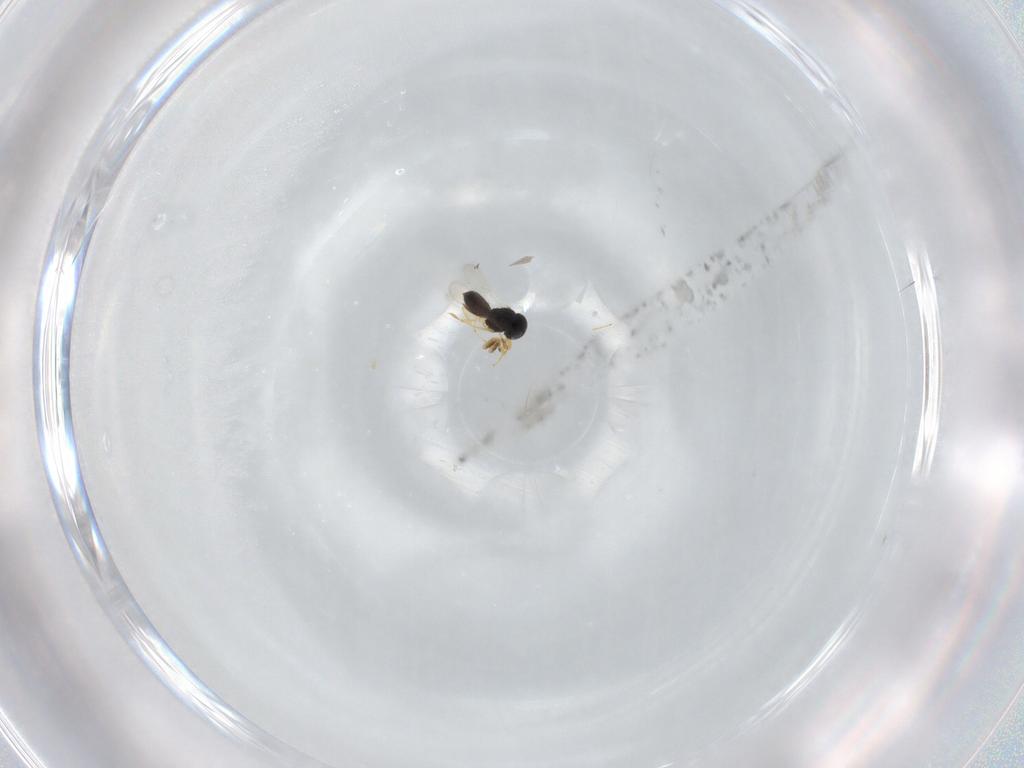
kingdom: Animalia
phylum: Arthropoda
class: Insecta
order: Hymenoptera
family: Scelionidae
